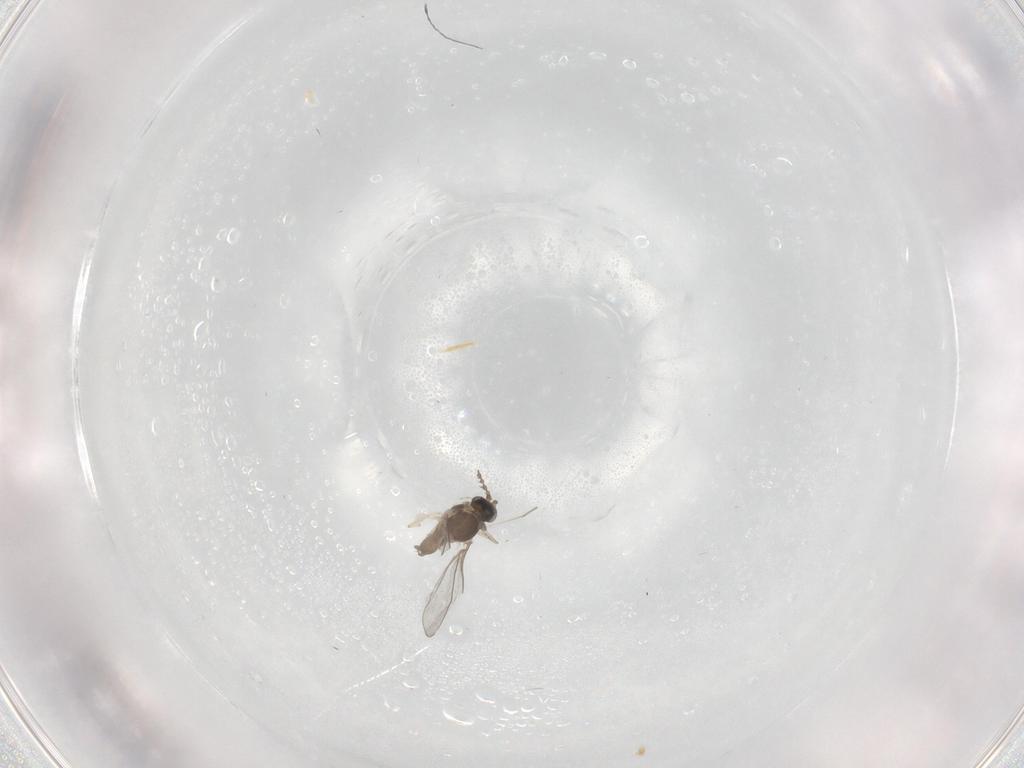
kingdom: Animalia
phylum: Arthropoda
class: Insecta
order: Diptera
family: Cecidomyiidae
